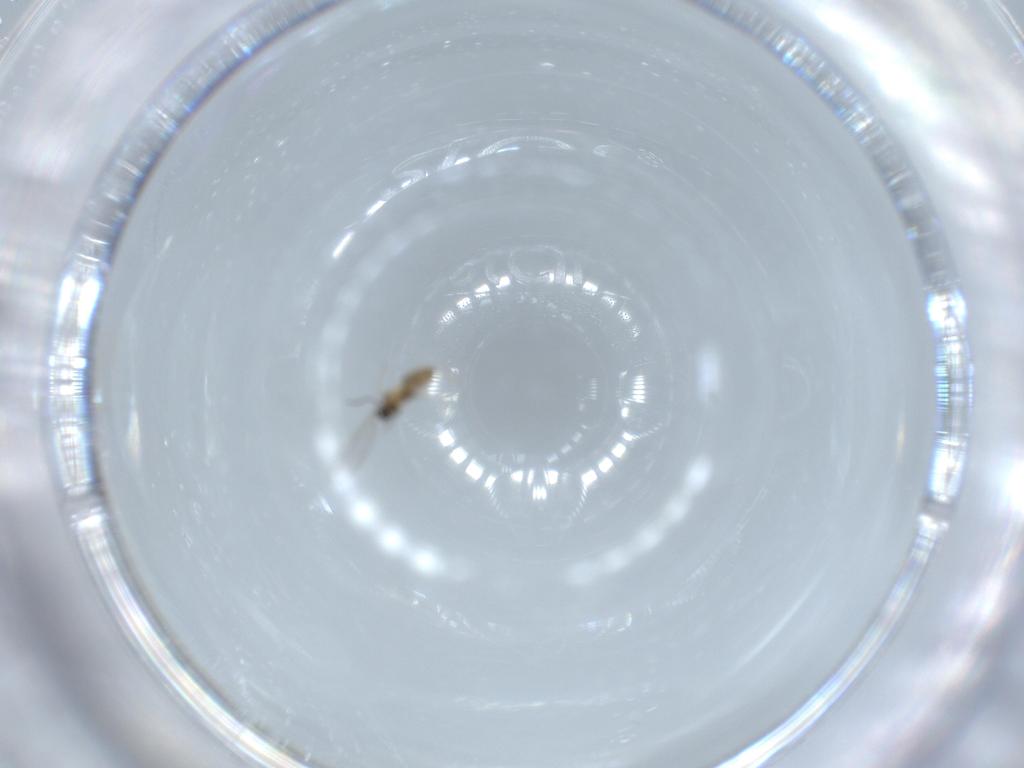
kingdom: Animalia
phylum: Arthropoda
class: Insecta
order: Diptera
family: Cecidomyiidae
